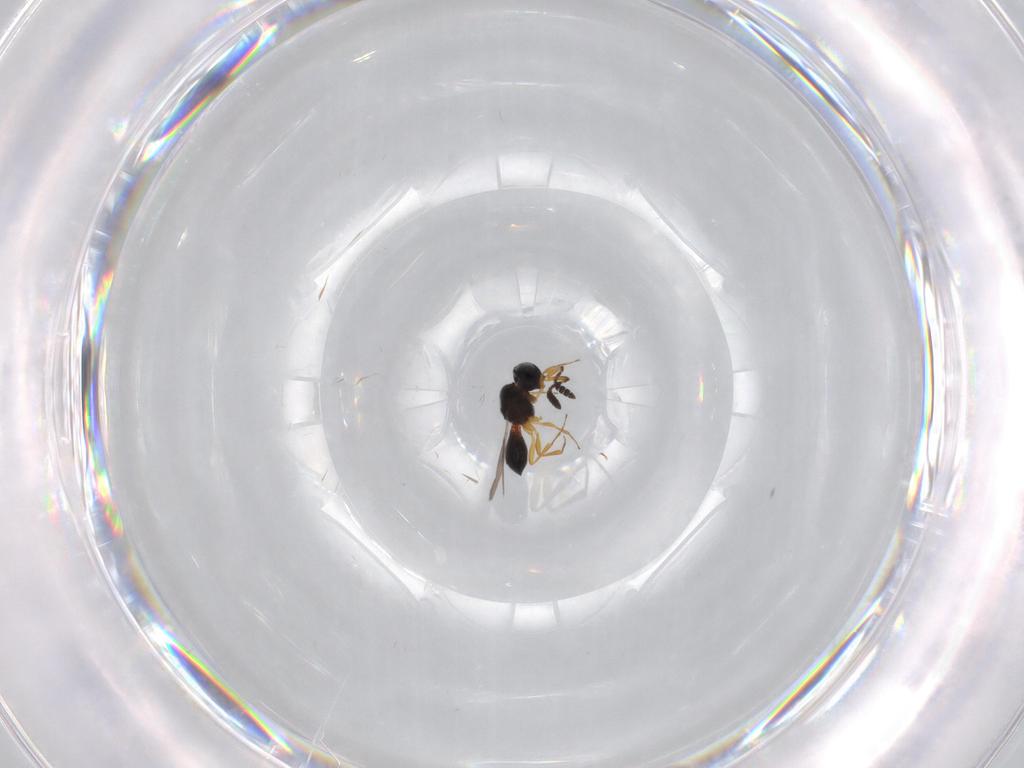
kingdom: Animalia
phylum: Arthropoda
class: Insecta
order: Hymenoptera
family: Scelionidae
